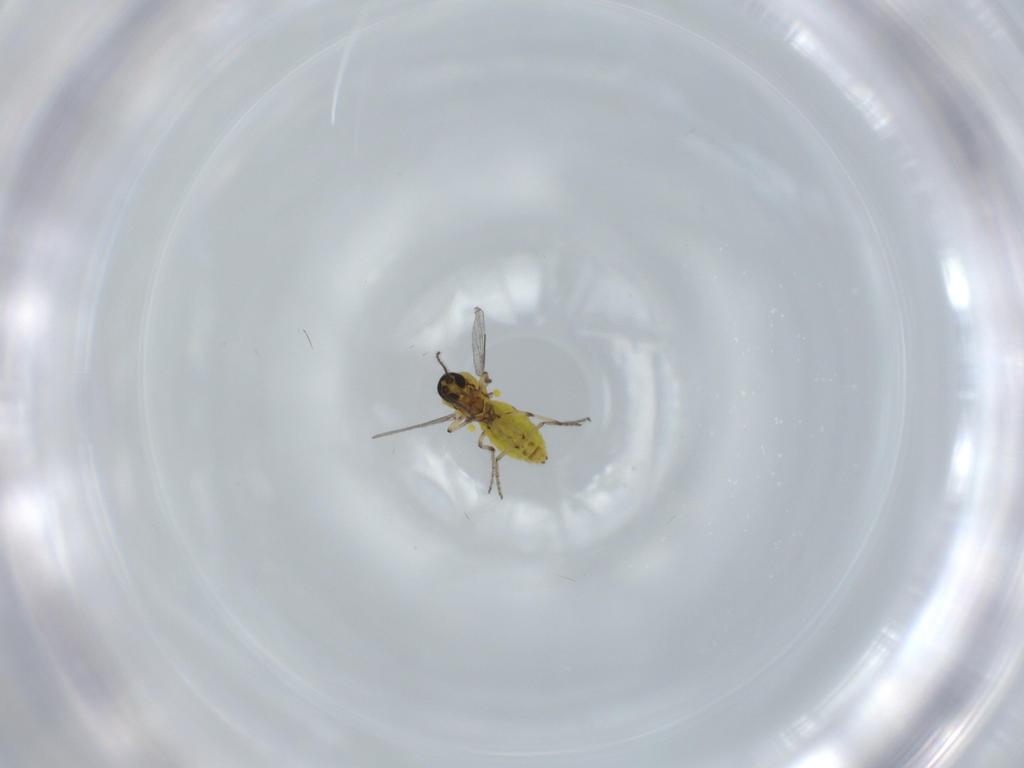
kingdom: Animalia
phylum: Arthropoda
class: Insecta
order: Diptera
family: Ceratopogonidae
